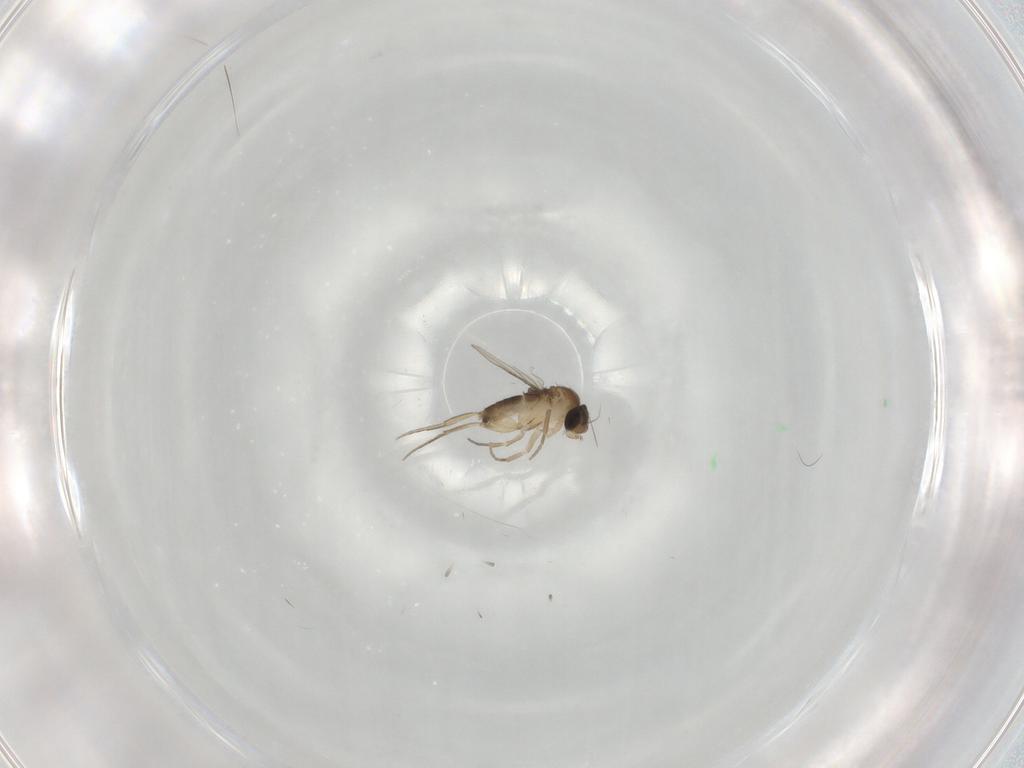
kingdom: Animalia
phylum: Arthropoda
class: Insecta
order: Diptera
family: Phoridae
